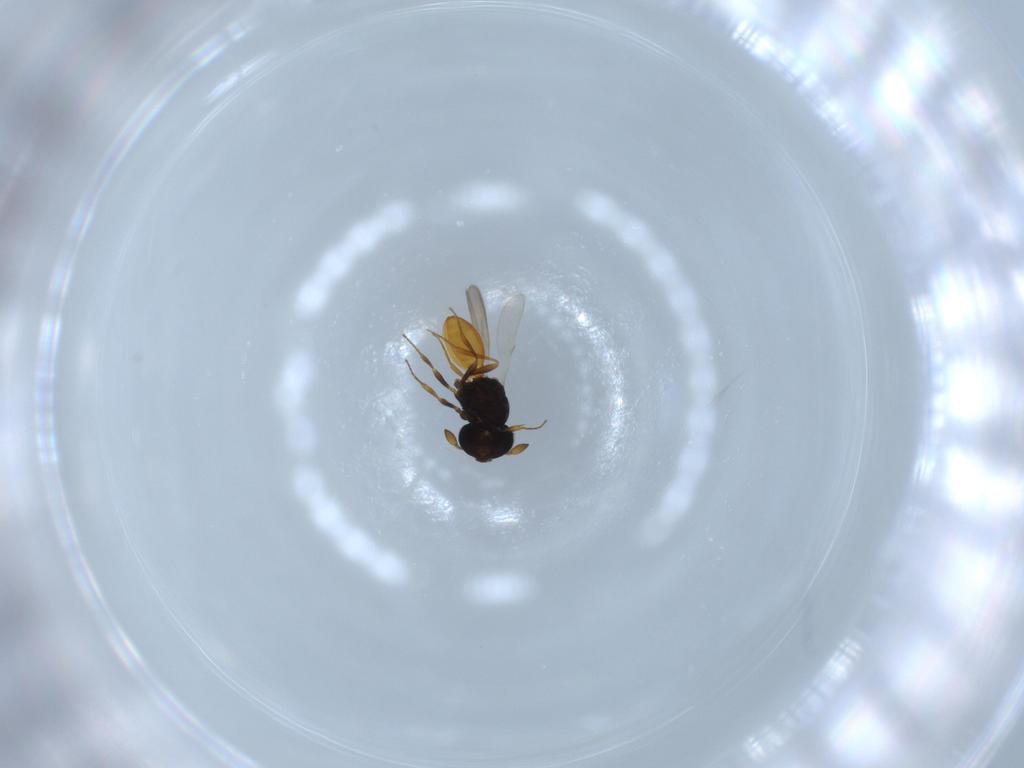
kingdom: Animalia
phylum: Arthropoda
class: Insecta
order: Hymenoptera
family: Scelionidae
